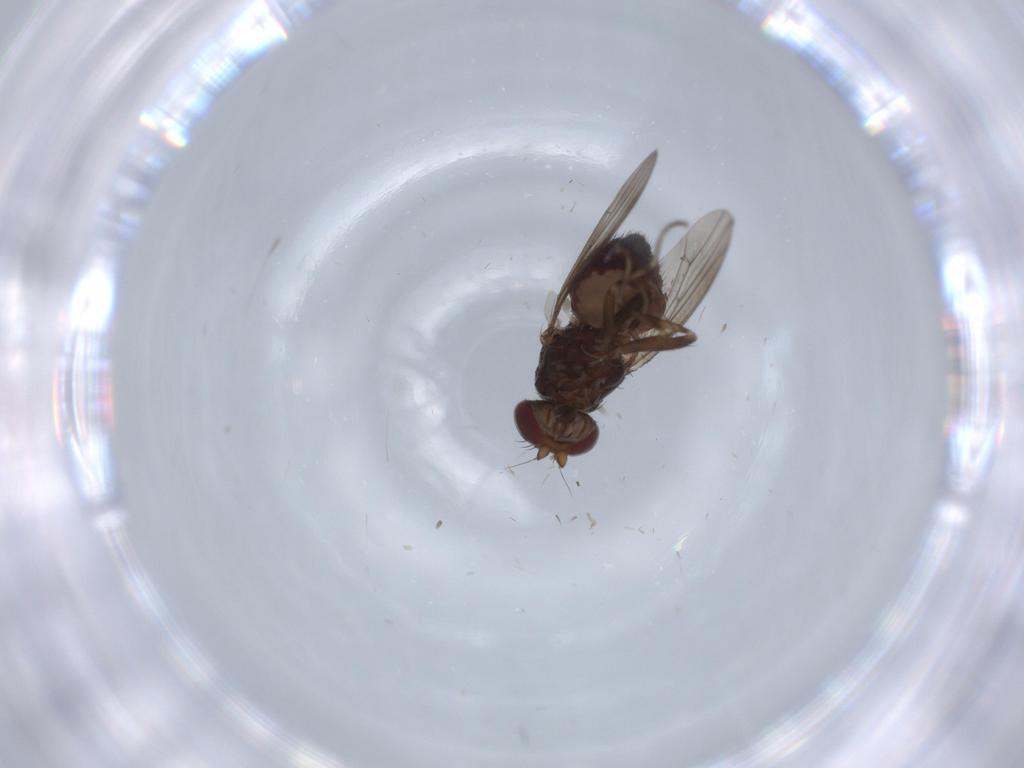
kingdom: Animalia
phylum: Arthropoda
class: Insecta
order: Diptera
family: Heleomyzidae
